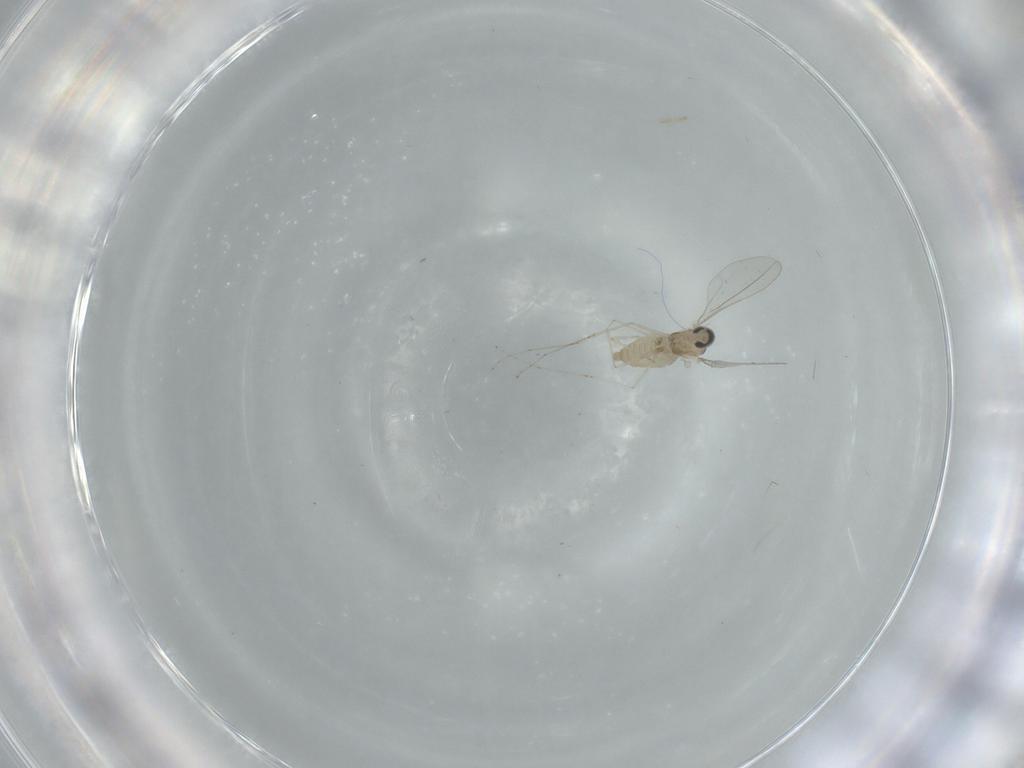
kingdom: Animalia
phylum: Arthropoda
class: Insecta
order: Diptera
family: Cecidomyiidae
